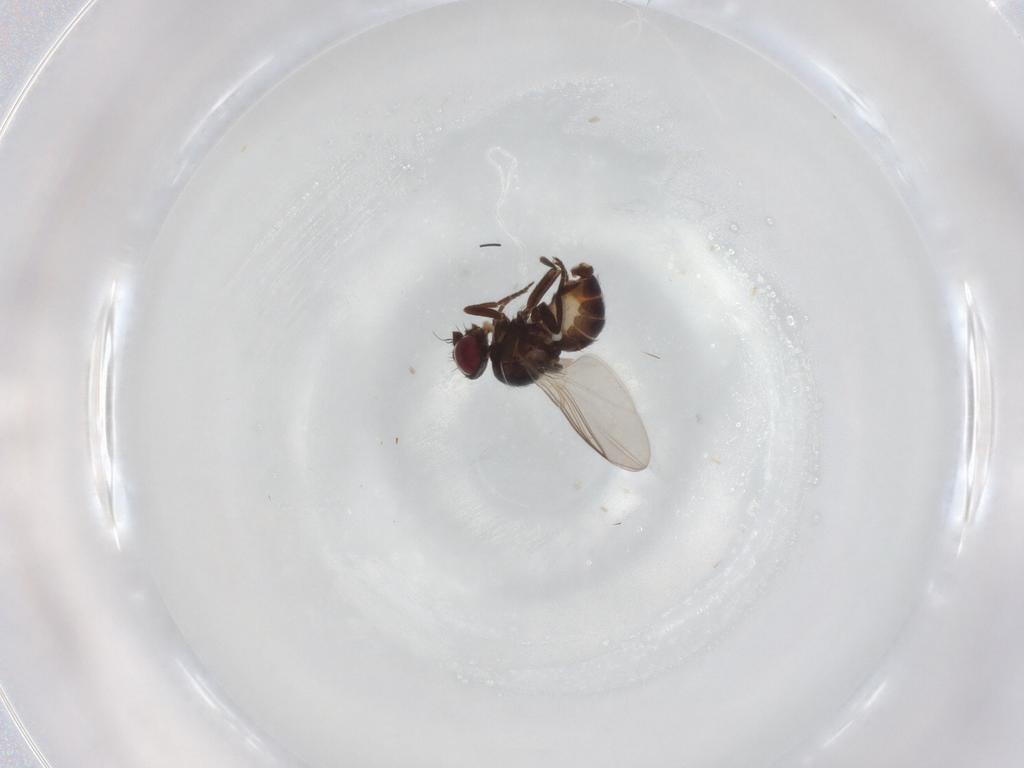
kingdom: Animalia
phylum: Arthropoda
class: Insecta
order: Diptera
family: Agromyzidae
